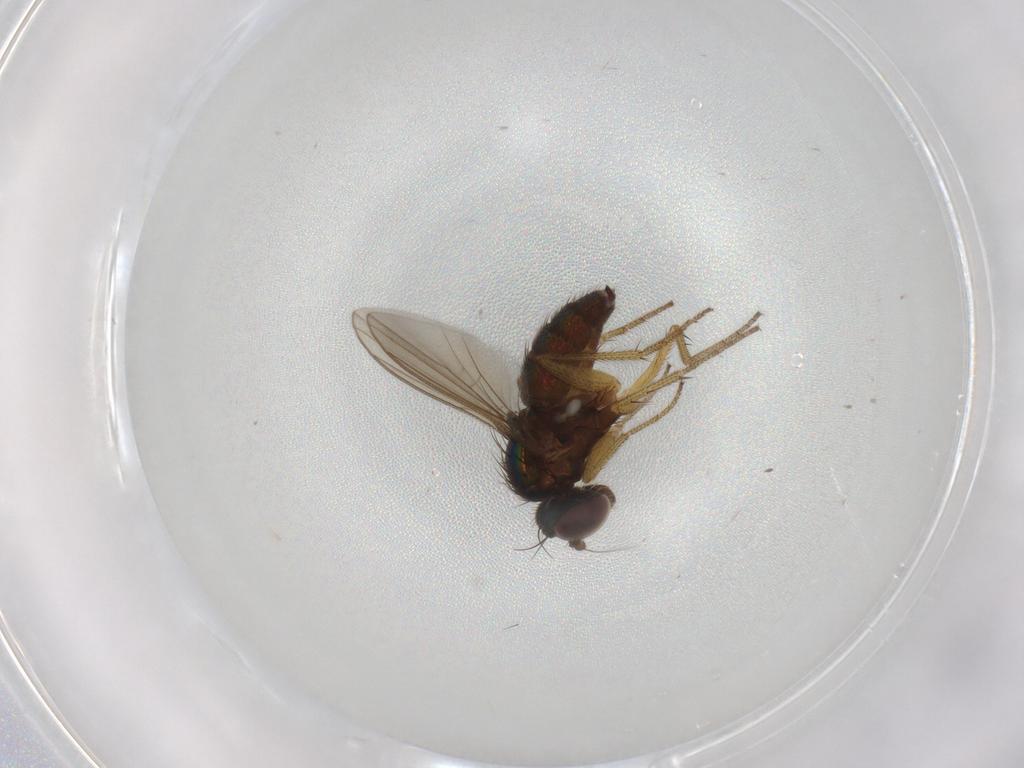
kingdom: Animalia
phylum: Arthropoda
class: Insecta
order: Diptera
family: Dolichopodidae
